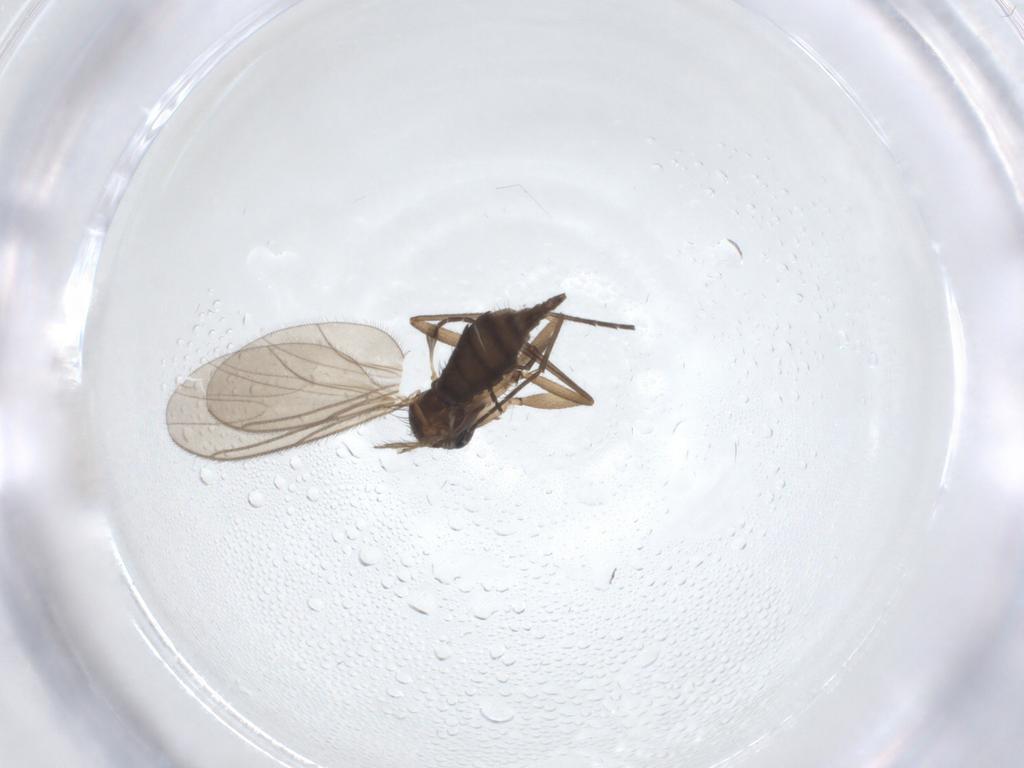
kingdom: Animalia
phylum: Arthropoda
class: Insecta
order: Diptera
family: Sciaridae
